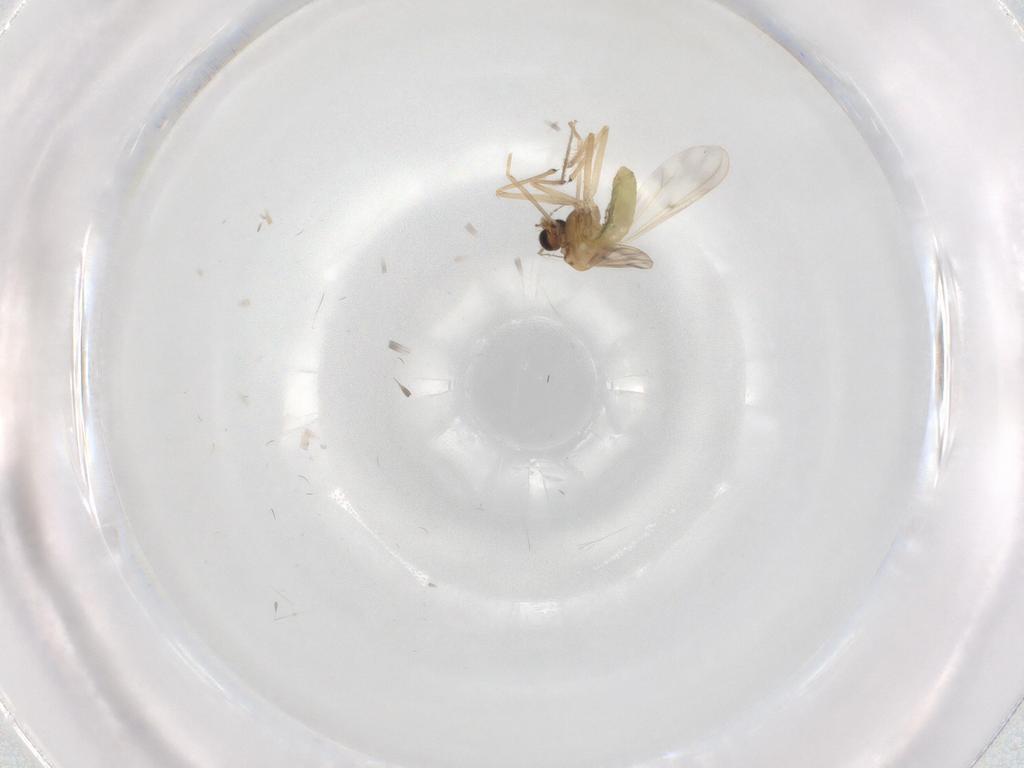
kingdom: Animalia
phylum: Arthropoda
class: Insecta
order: Diptera
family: Chironomidae
